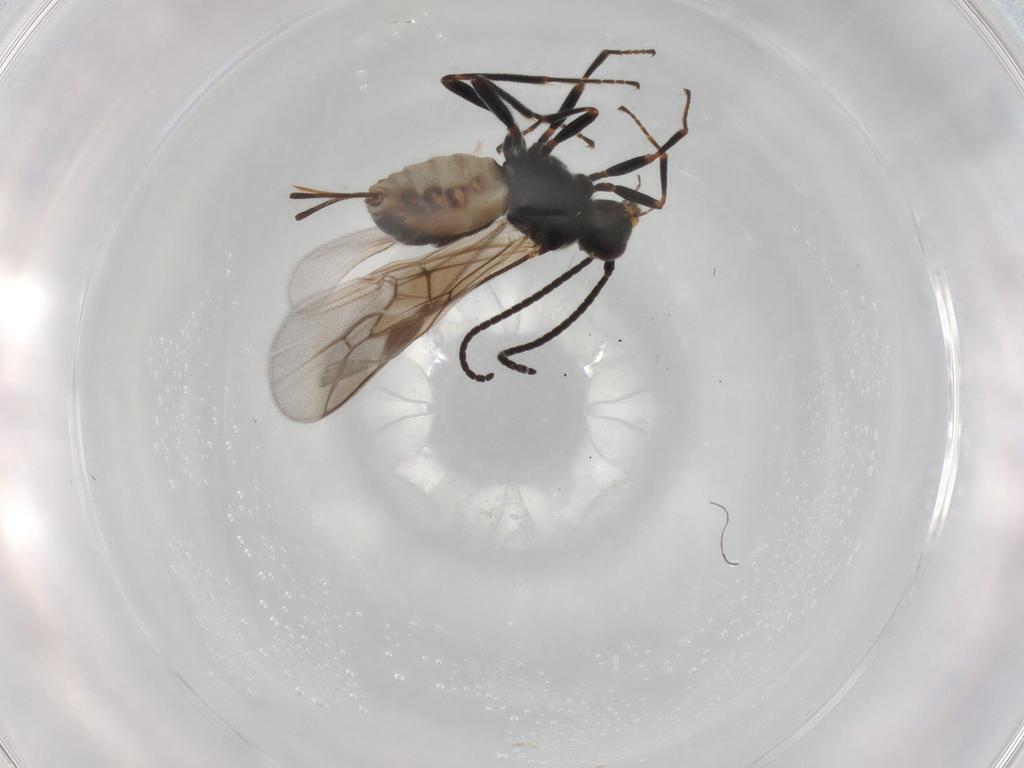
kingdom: Animalia
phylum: Arthropoda
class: Insecta
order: Hymenoptera
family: Braconidae
